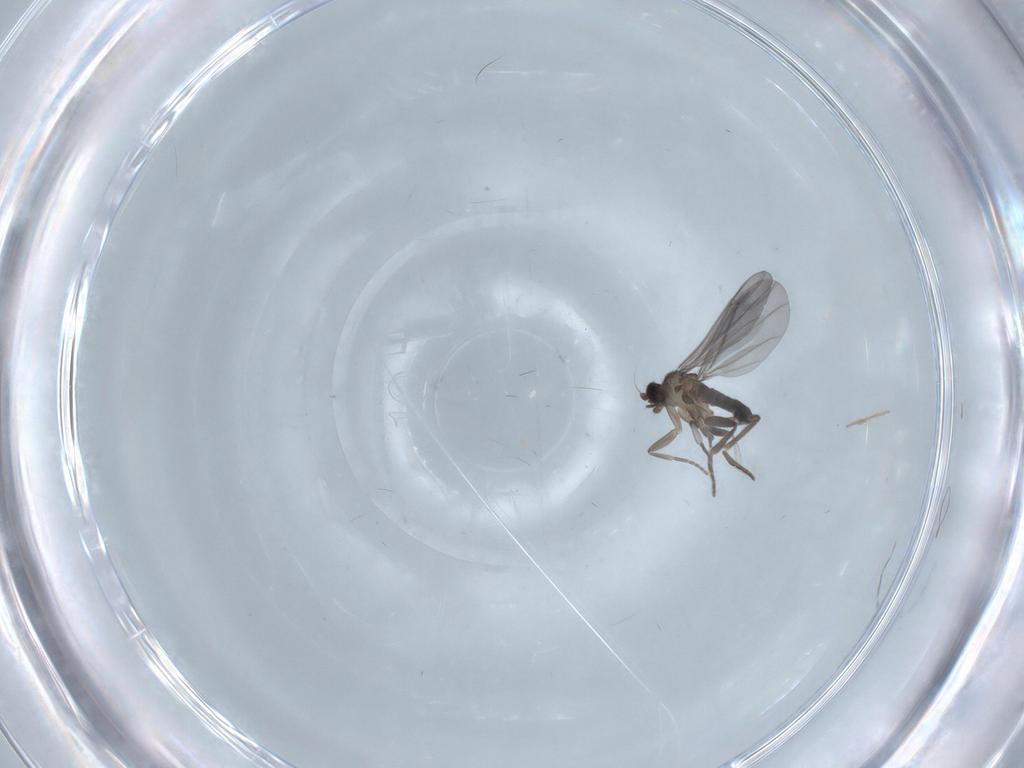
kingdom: Animalia
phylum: Arthropoda
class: Insecta
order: Diptera
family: Phoridae
